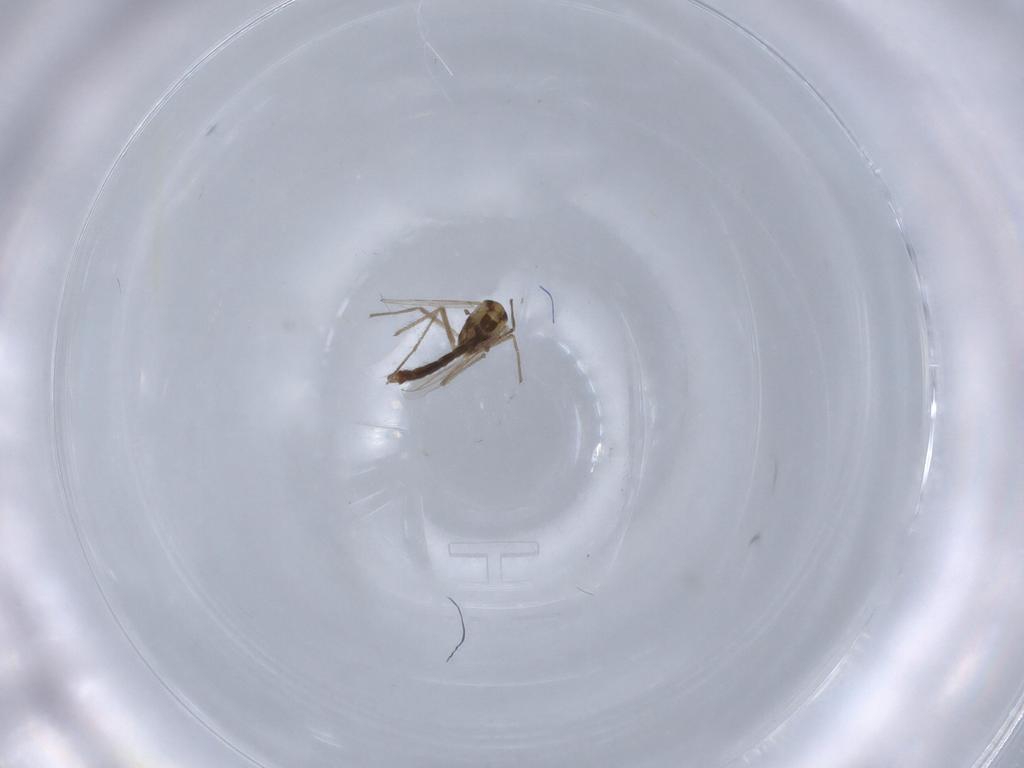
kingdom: Animalia
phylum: Arthropoda
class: Insecta
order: Diptera
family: Chironomidae
